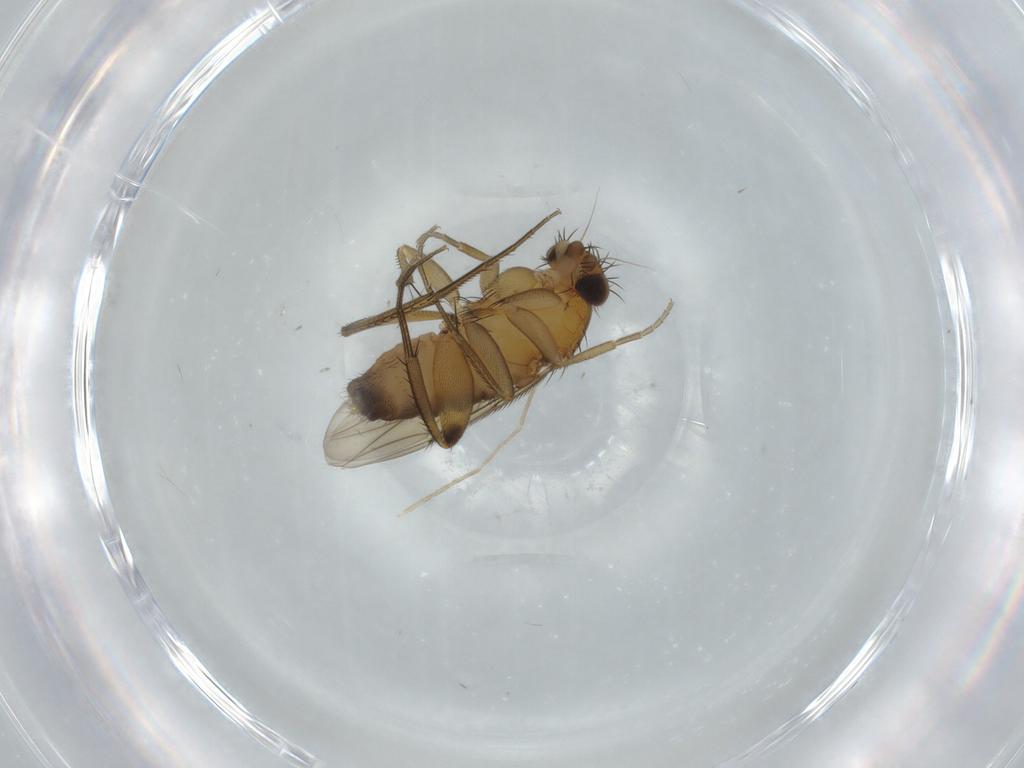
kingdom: Animalia
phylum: Arthropoda
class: Insecta
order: Diptera
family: Phoridae
